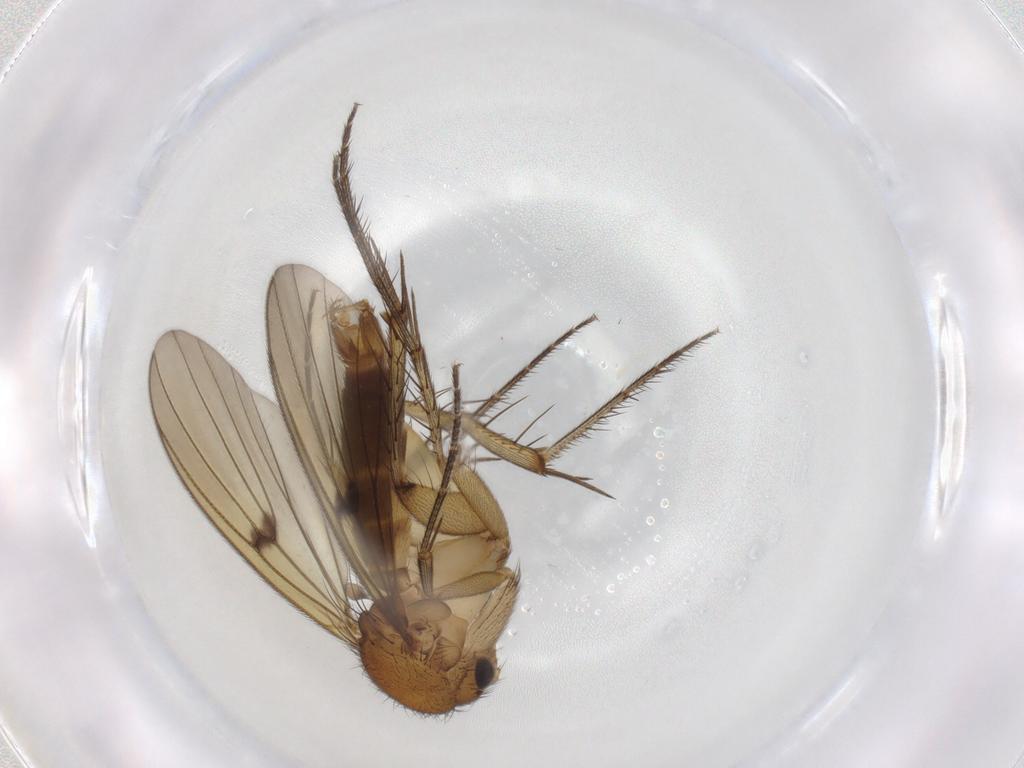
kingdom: Animalia
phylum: Arthropoda
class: Insecta
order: Diptera
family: Mycetophilidae
